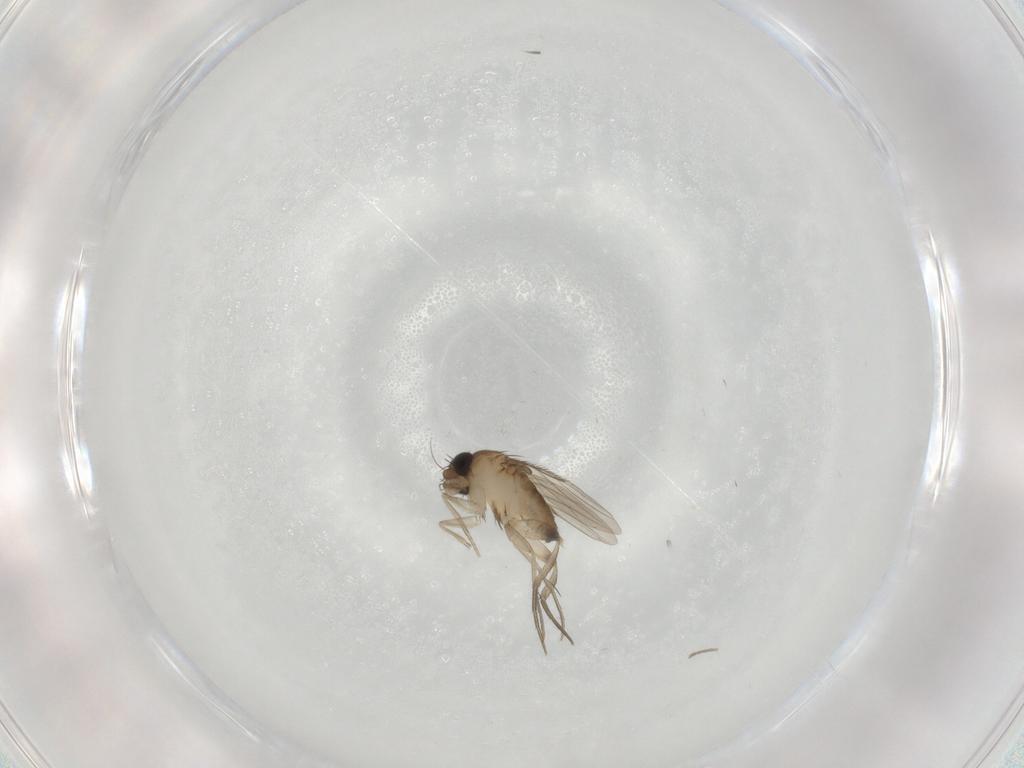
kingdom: Animalia
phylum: Arthropoda
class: Insecta
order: Diptera
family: Phoridae
